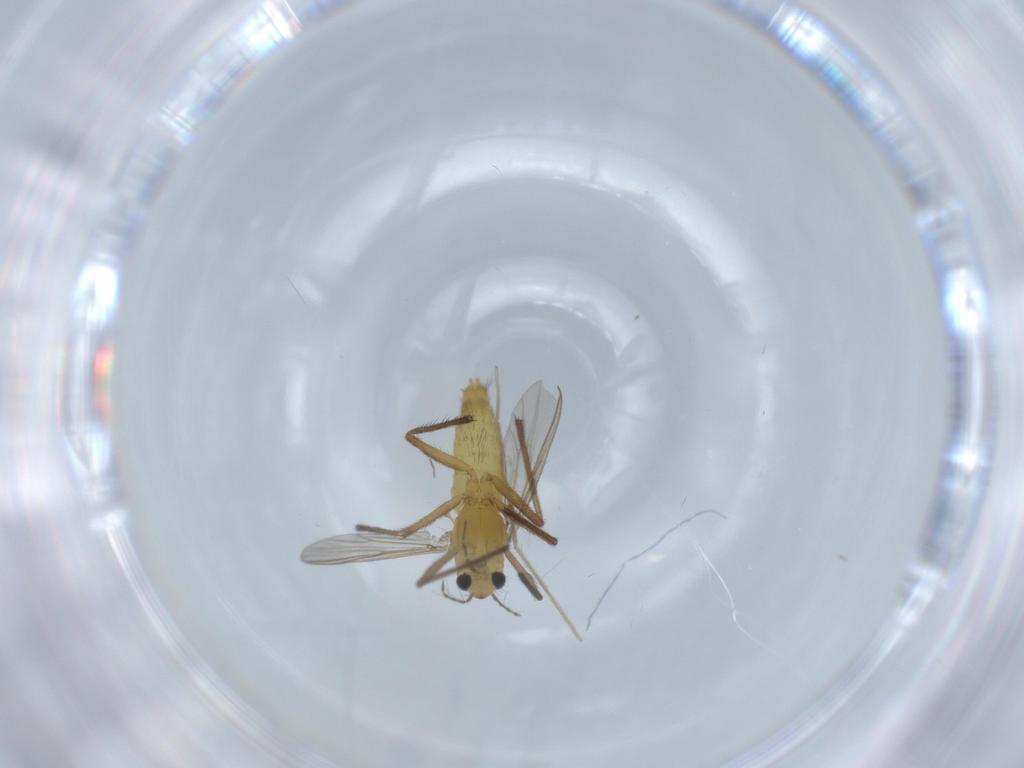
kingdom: Animalia
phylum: Arthropoda
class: Insecta
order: Diptera
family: Chironomidae
